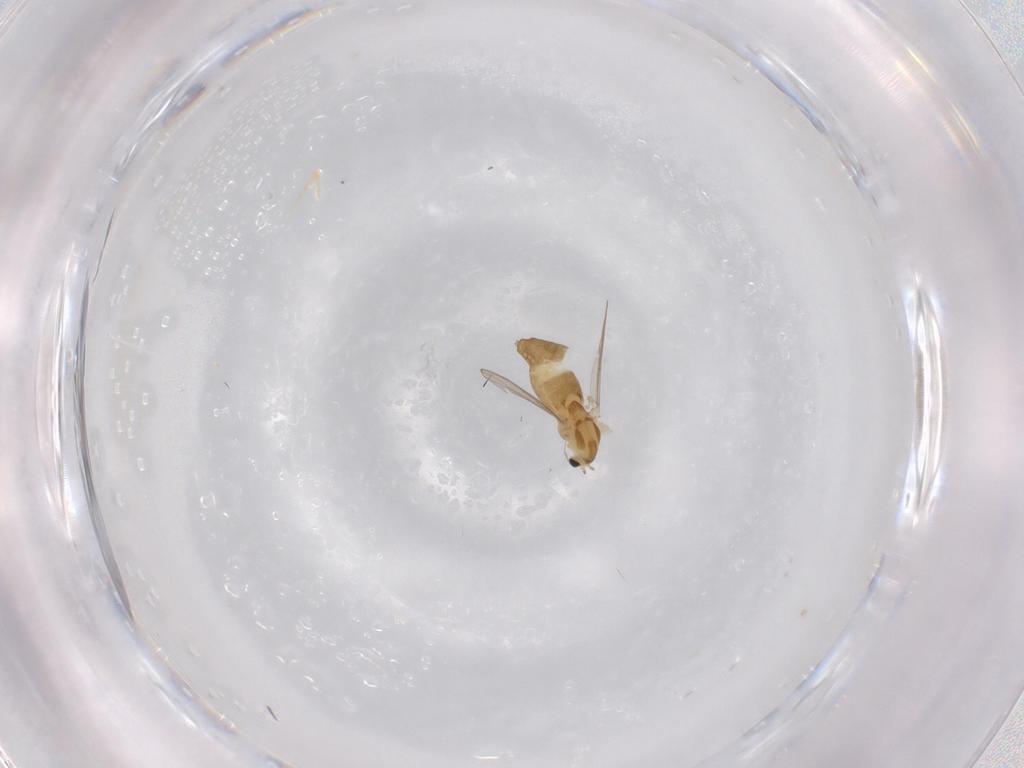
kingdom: Animalia
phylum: Arthropoda
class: Insecta
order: Diptera
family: Chironomidae
